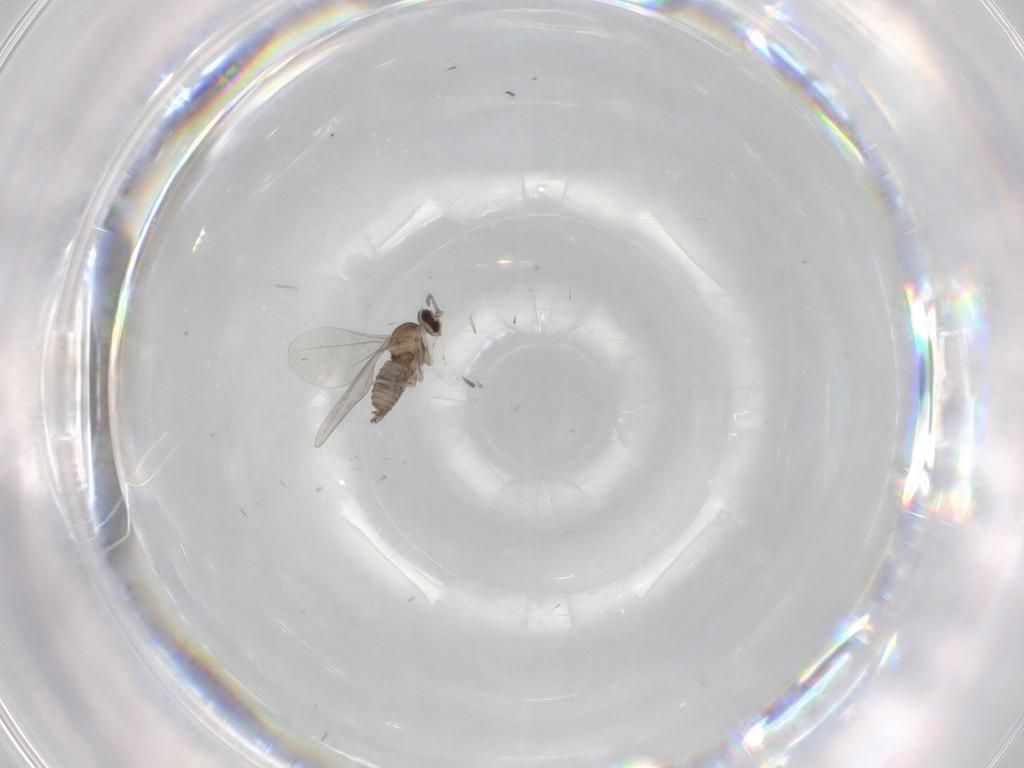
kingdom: Animalia
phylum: Arthropoda
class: Insecta
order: Diptera
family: Cecidomyiidae
